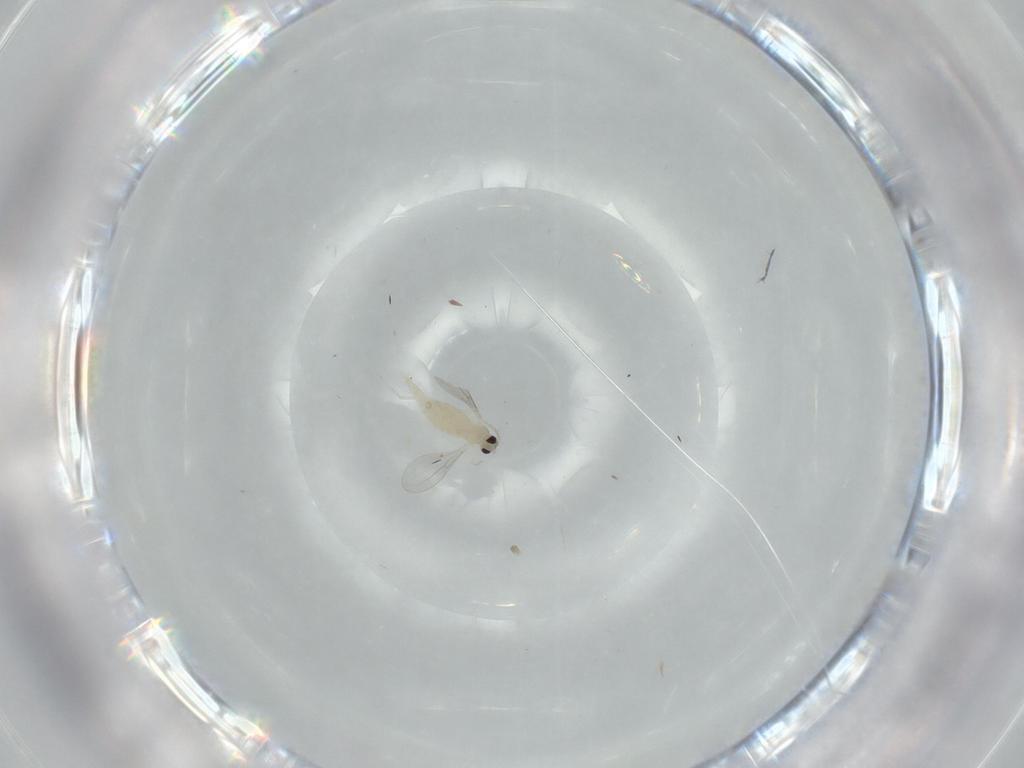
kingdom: Animalia
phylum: Arthropoda
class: Insecta
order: Diptera
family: Cecidomyiidae
